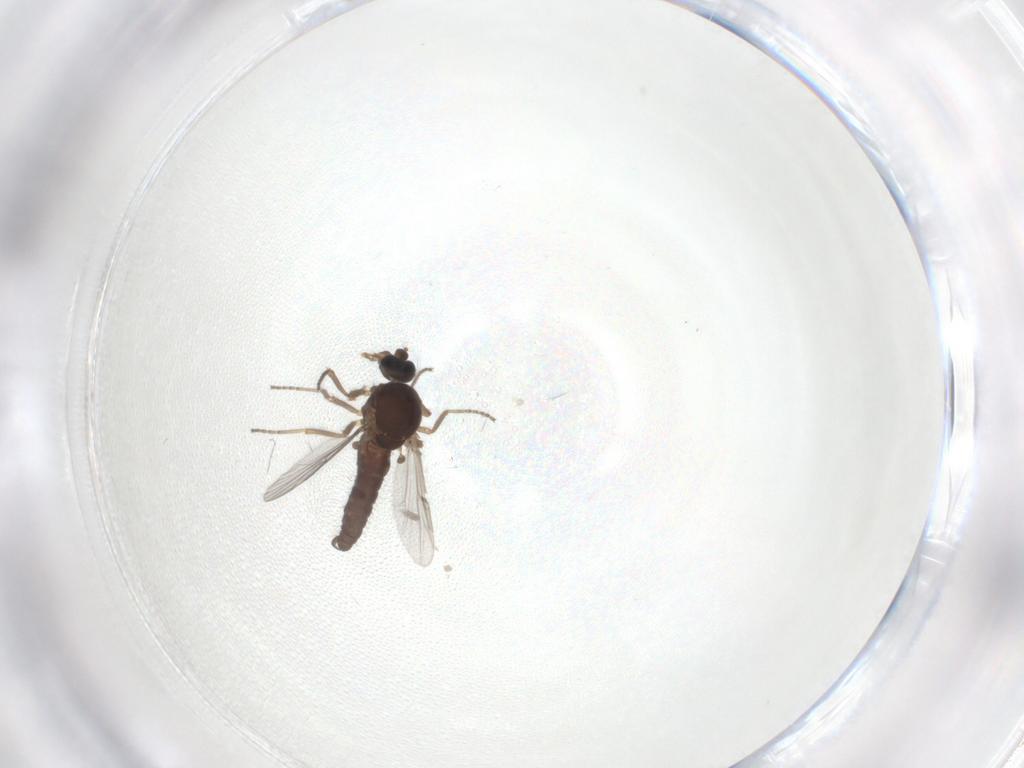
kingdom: Animalia
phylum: Arthropoda
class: Insecta
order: Diptera
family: Ceratopogonidae
